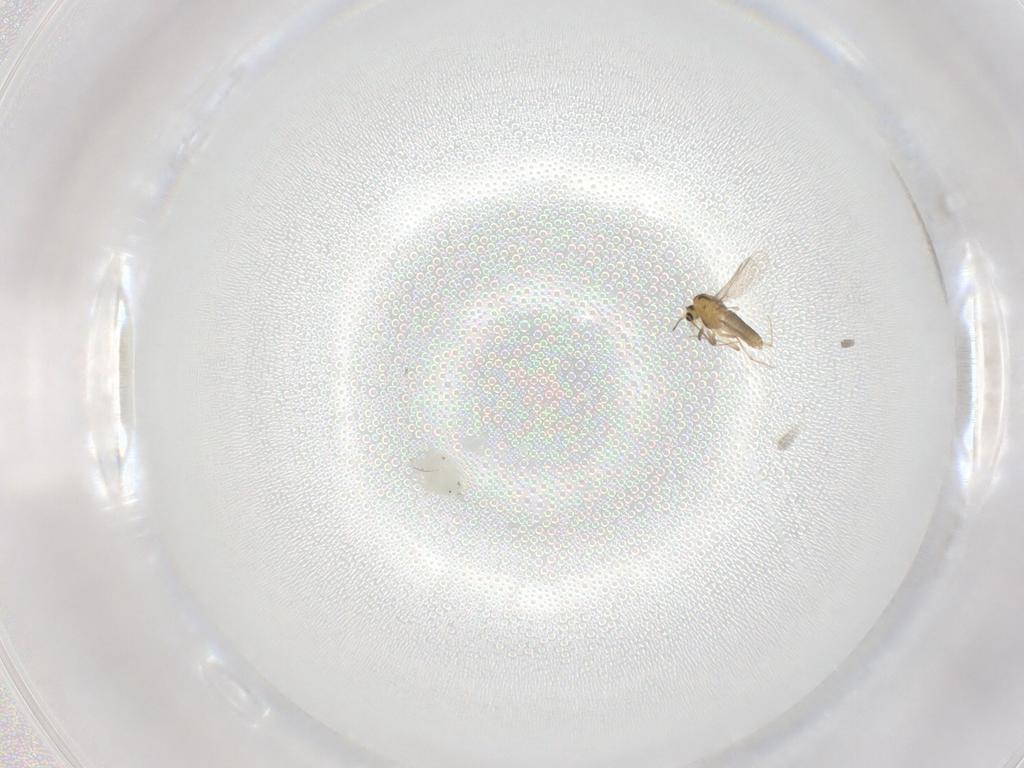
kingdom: Animalia
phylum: Arthropoda
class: Insecta
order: Diptera
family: Chironomidae
